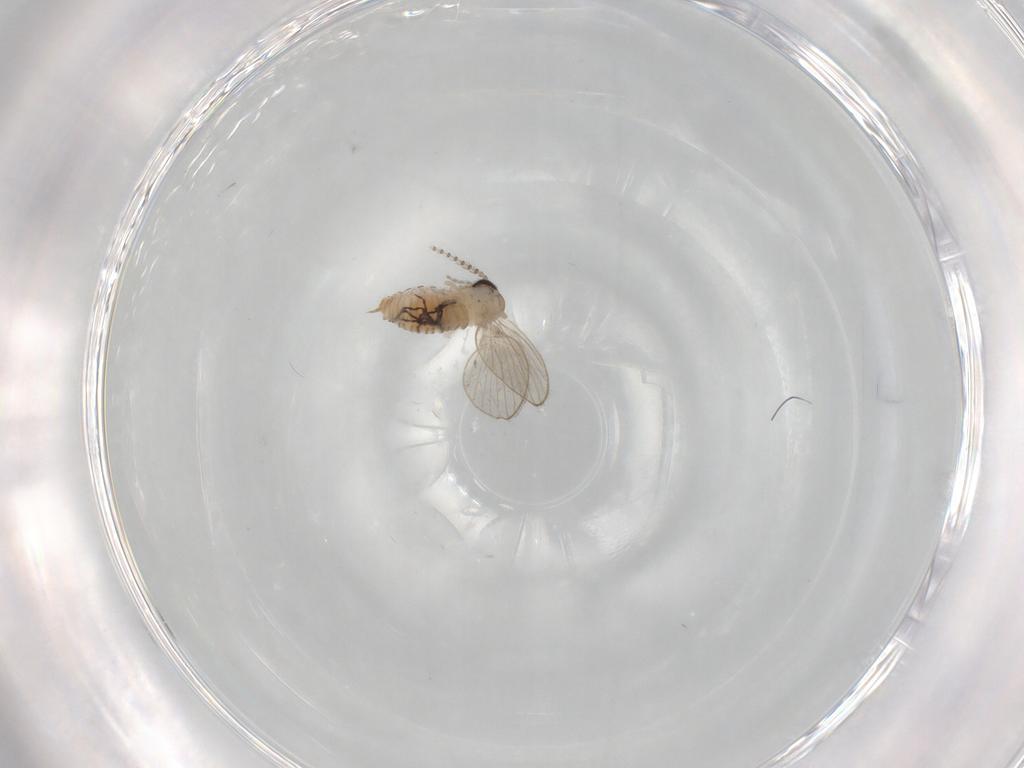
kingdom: Animalia
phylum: Arthropoda
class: Insecta
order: Diptera
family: Psychodidae
